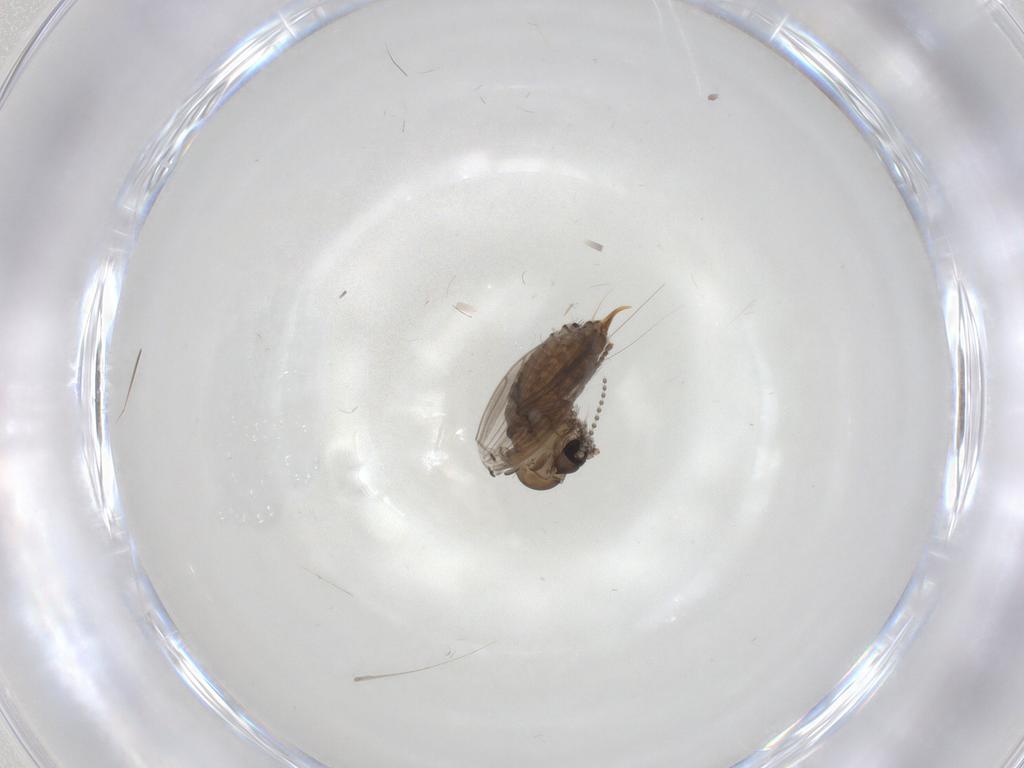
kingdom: Animalia
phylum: Arthropoda
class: Insecta
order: Diptera
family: Psychodidae
